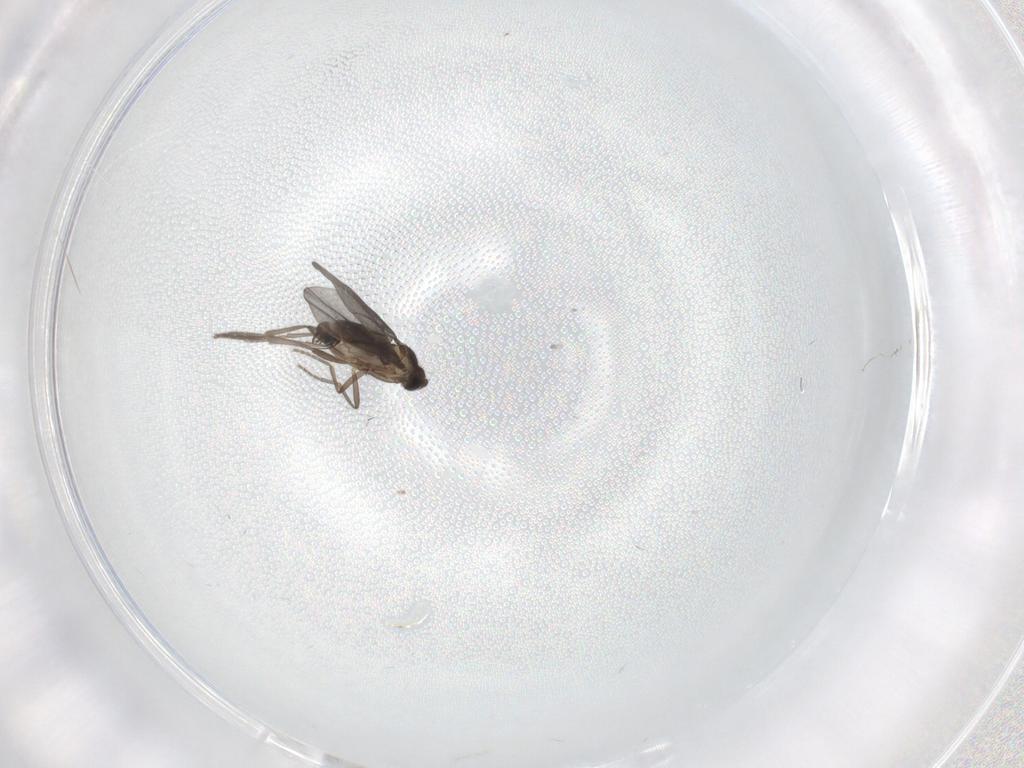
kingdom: Animalia
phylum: Arthropoda
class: Insecta
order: Diptera
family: Phoridae
